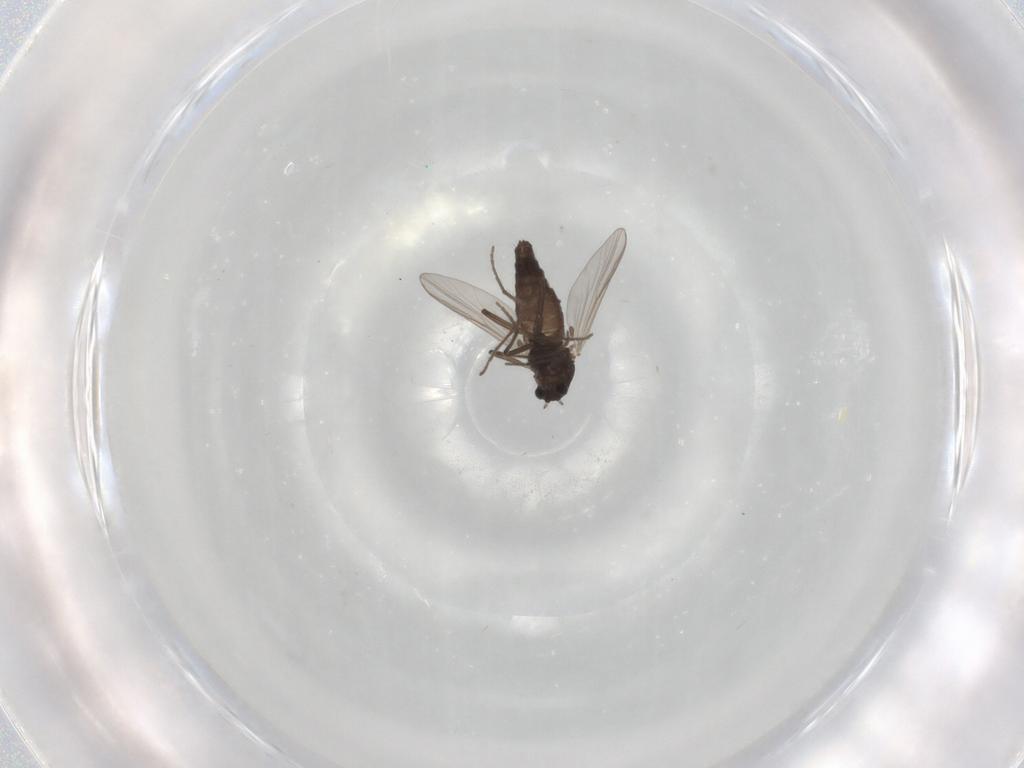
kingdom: Animalia
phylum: Arthropoda
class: Insecta
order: Diptera
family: Chironomidae
